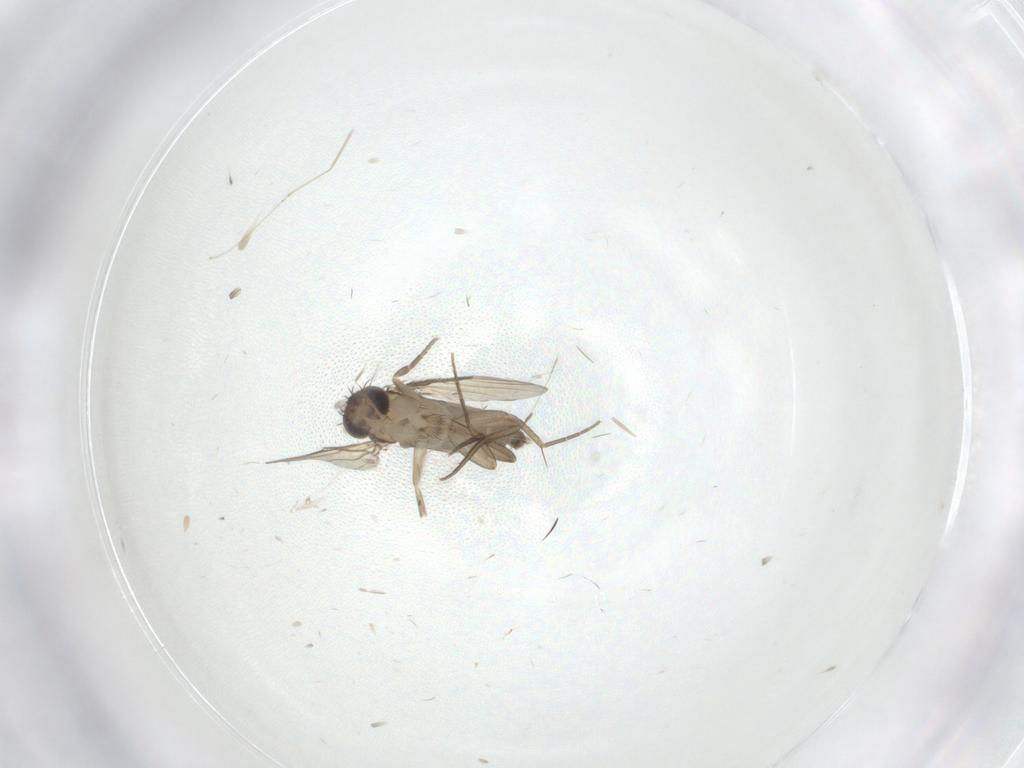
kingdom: Animalia
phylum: Arthropoda
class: Insecta
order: Diptera
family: Phoridae
